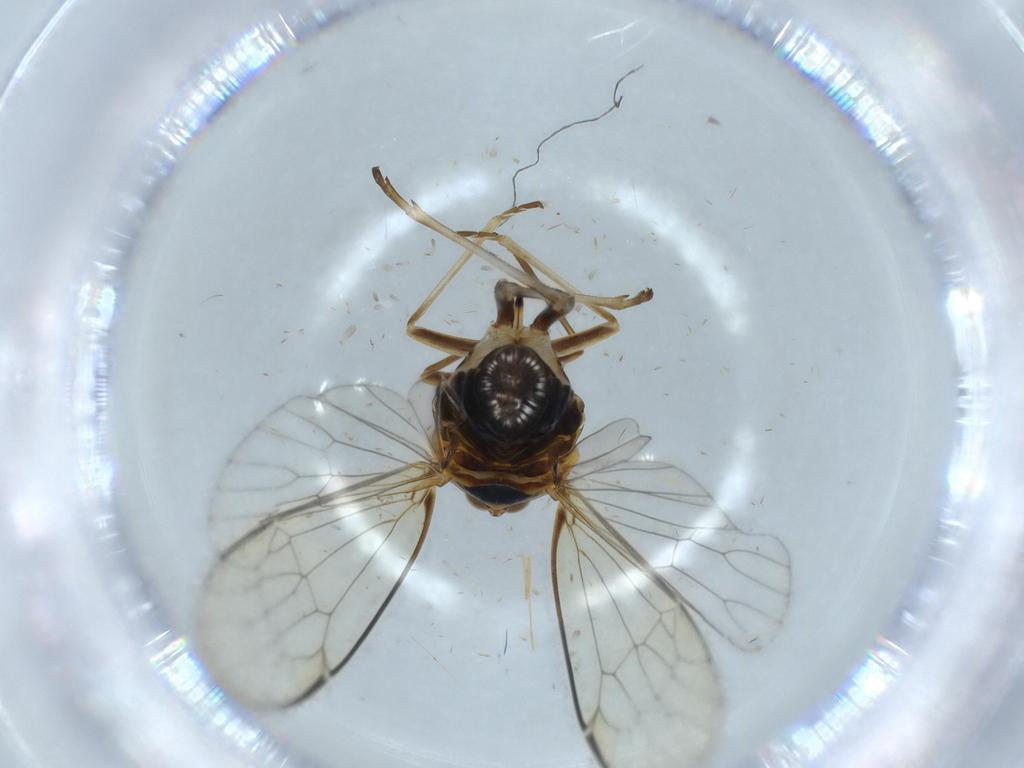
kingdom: Animalia
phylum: Arthropoda
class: Insecta
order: Hemiptera
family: Kinnaridae
